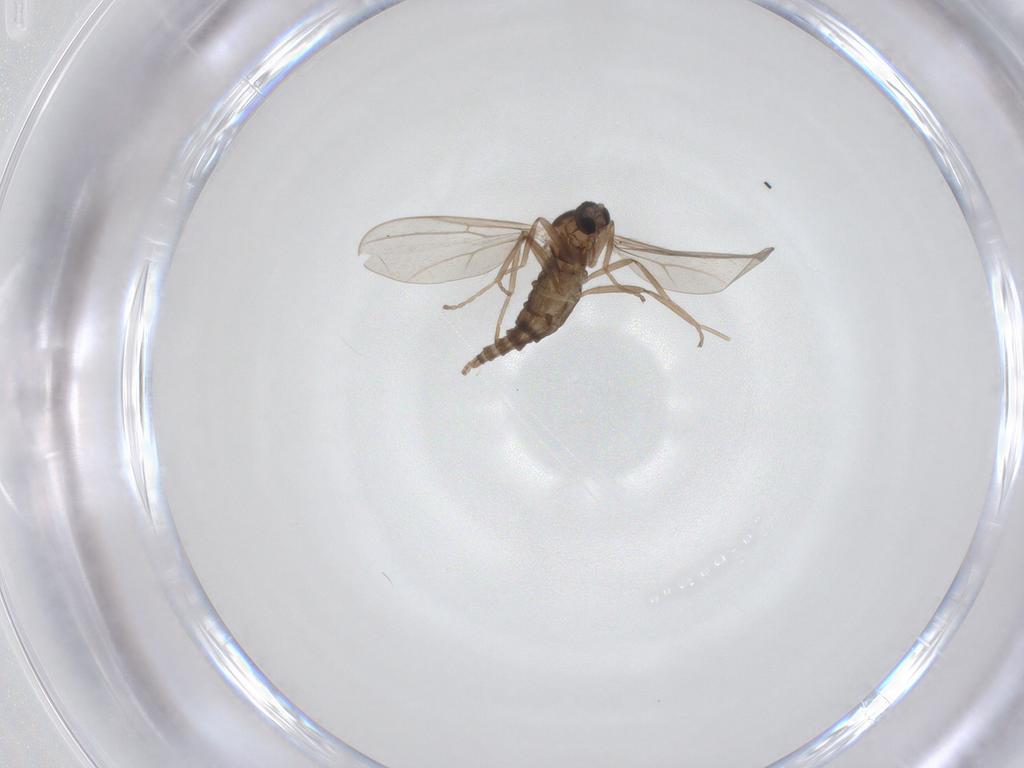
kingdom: Animalia
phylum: Arthropoda
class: Insecta
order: Diptera
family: Cecidomyiidae
